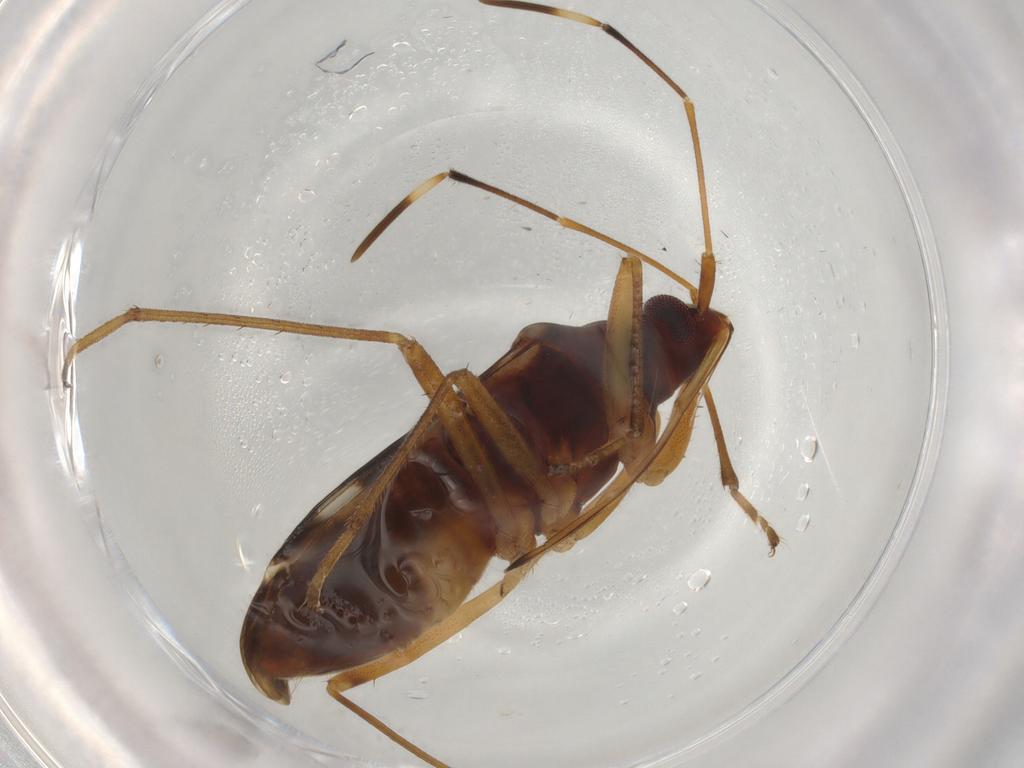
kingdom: Animalia
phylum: Arthropoda
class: Insecta
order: Hemiptera
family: Rhyparochromidae
